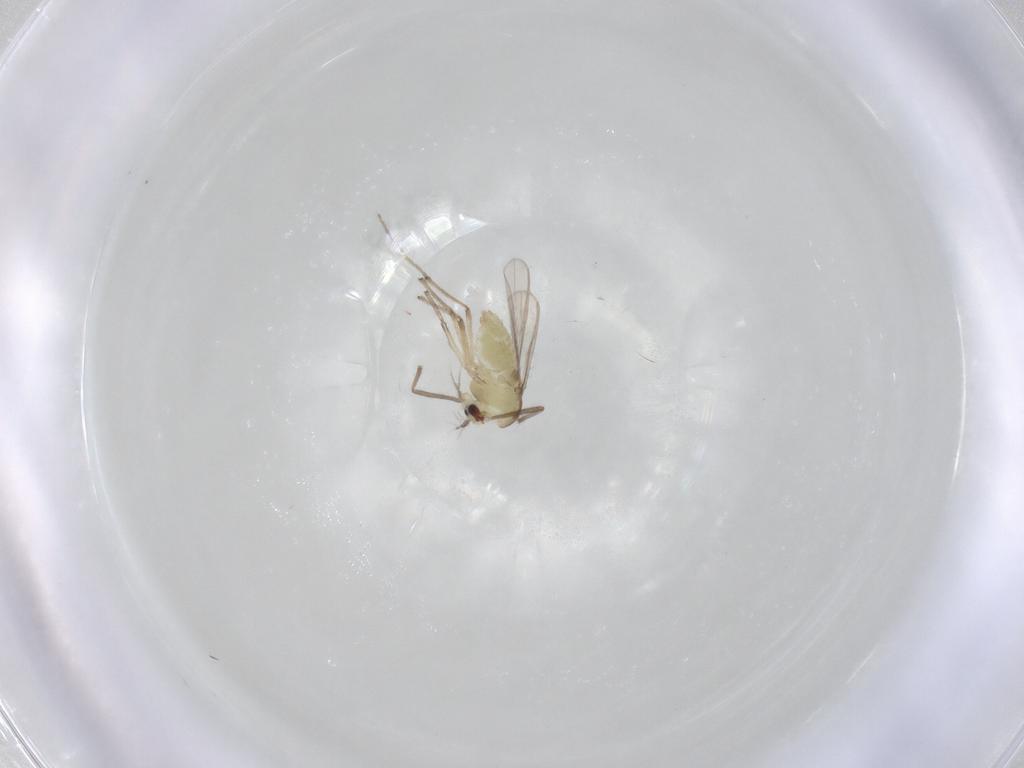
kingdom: Animalia
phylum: Arthropoda
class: Insecta
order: Diptera
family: Chironomidae
